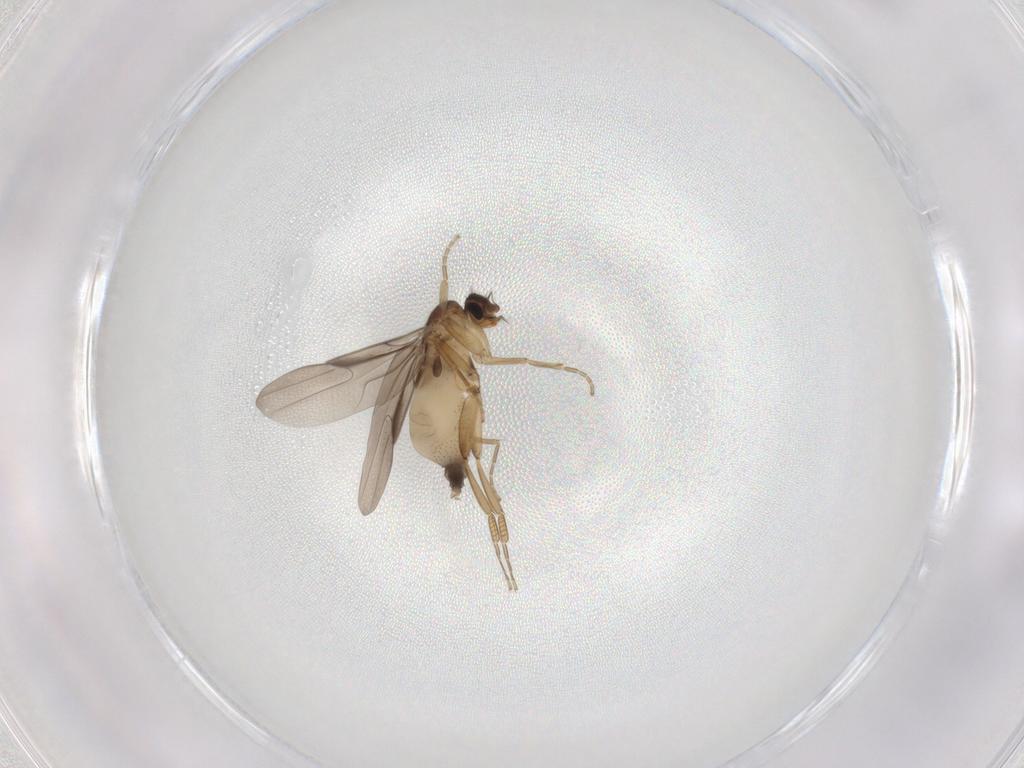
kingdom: Animalia
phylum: Arthropoda
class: Insecta
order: Diptera
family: Phoridae
